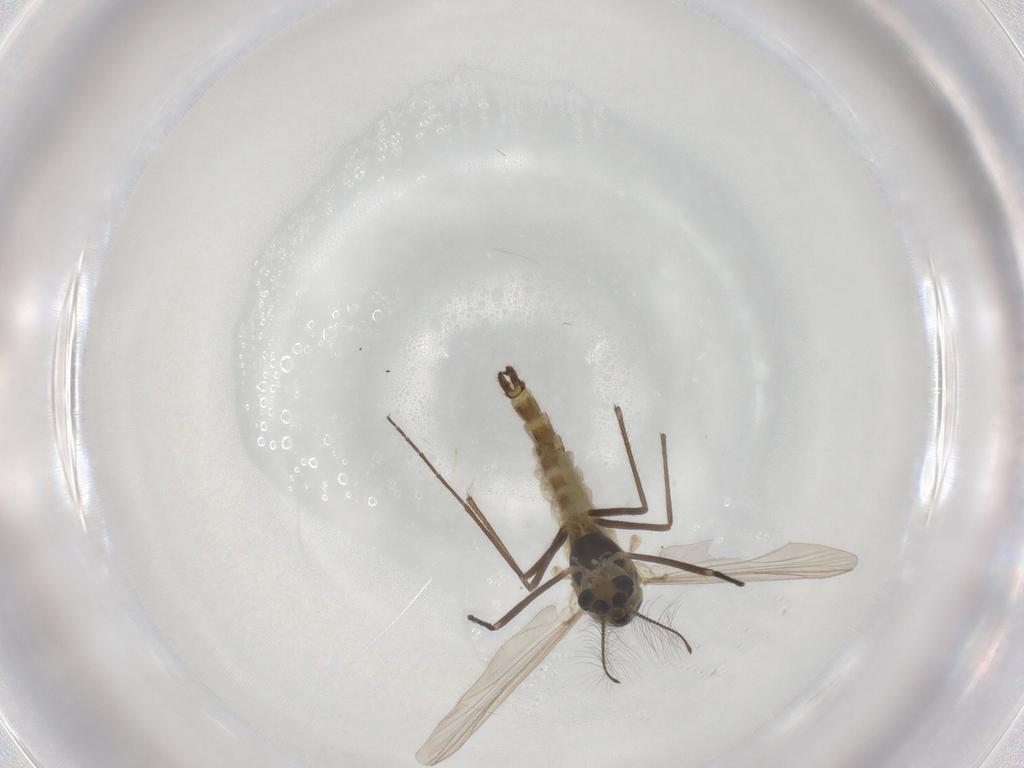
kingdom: Animalia
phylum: Arthropoda
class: Insecta
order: Diptera
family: Chironomidae
